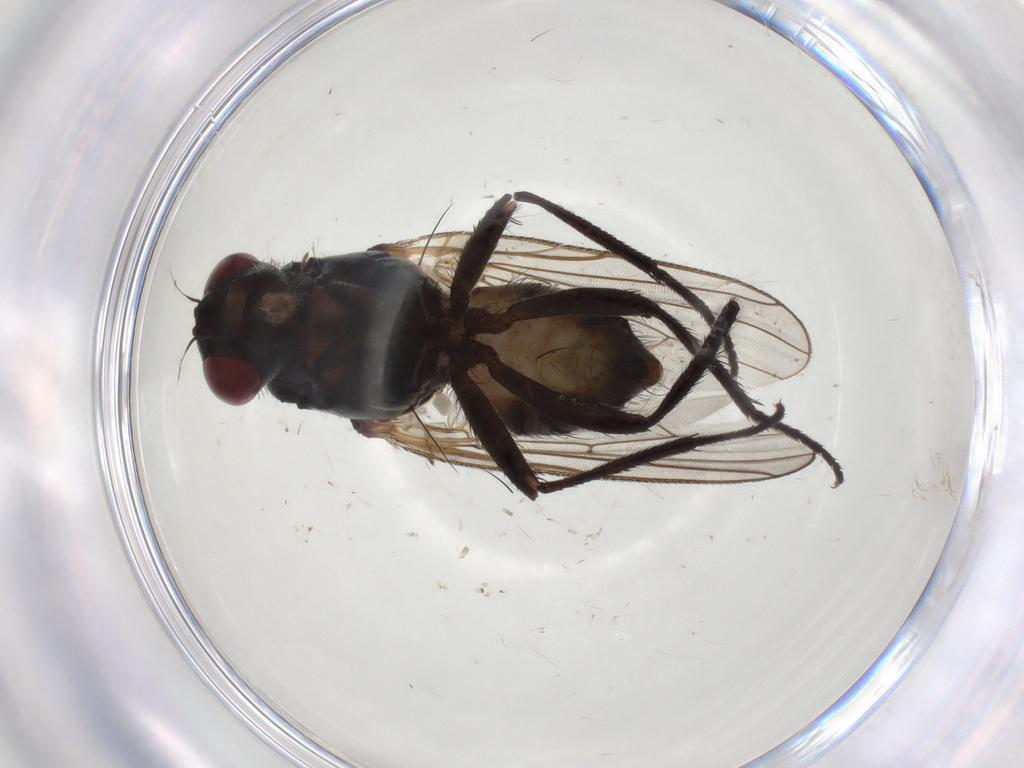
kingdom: Animalia
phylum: Arthropoda
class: Insecta
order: Diptera
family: Anthomyiidae
